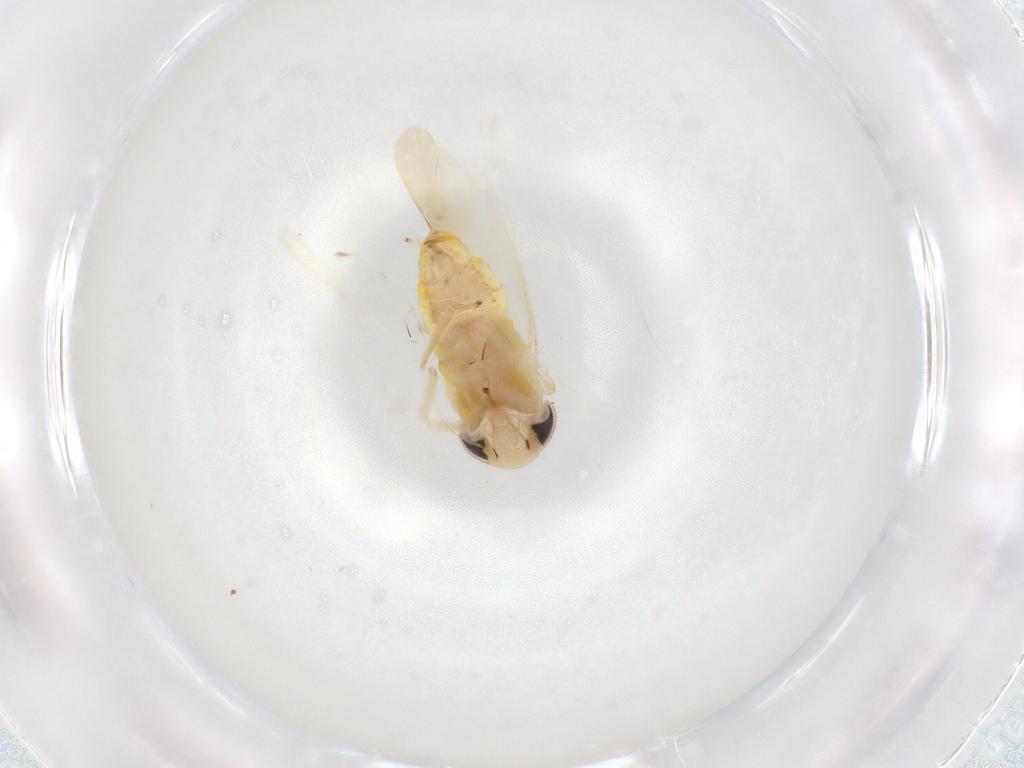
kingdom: Animalia
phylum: Arthropoda
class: Insecta
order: Hemiptera
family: Cicadellidae
